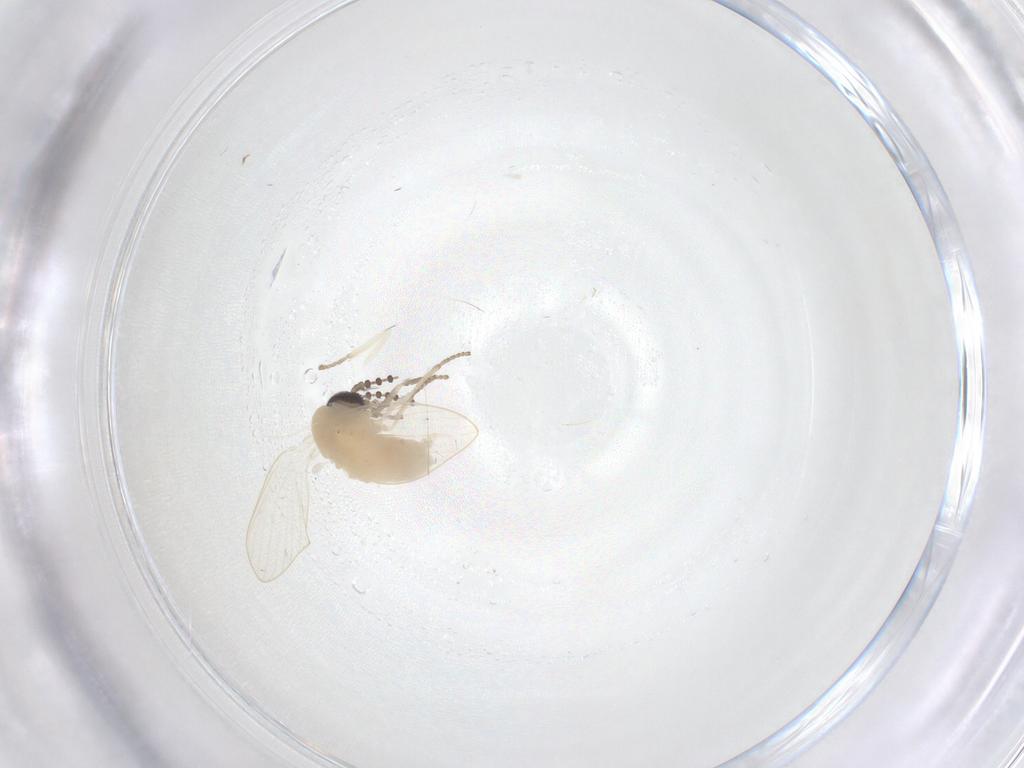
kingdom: Animalia
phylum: Arthropoda
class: Insecta
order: Diptera
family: Psychodidae
